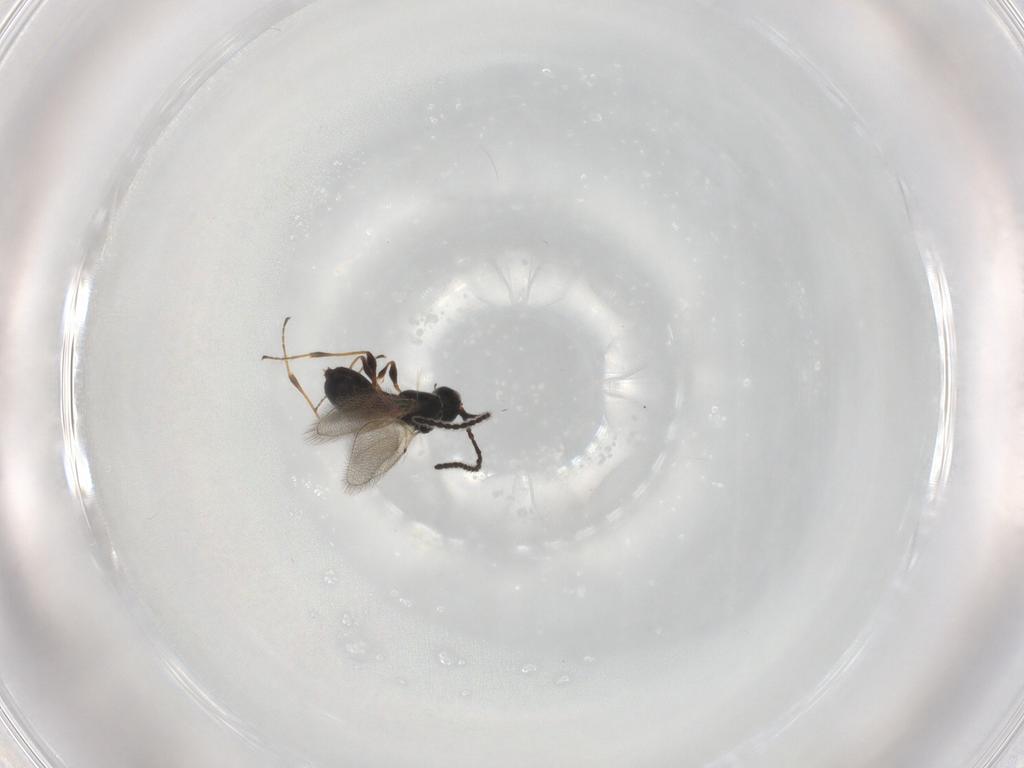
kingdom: Animalia
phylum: Arthropoda
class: Insecta
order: Hymenoptera
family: Diapriidae
